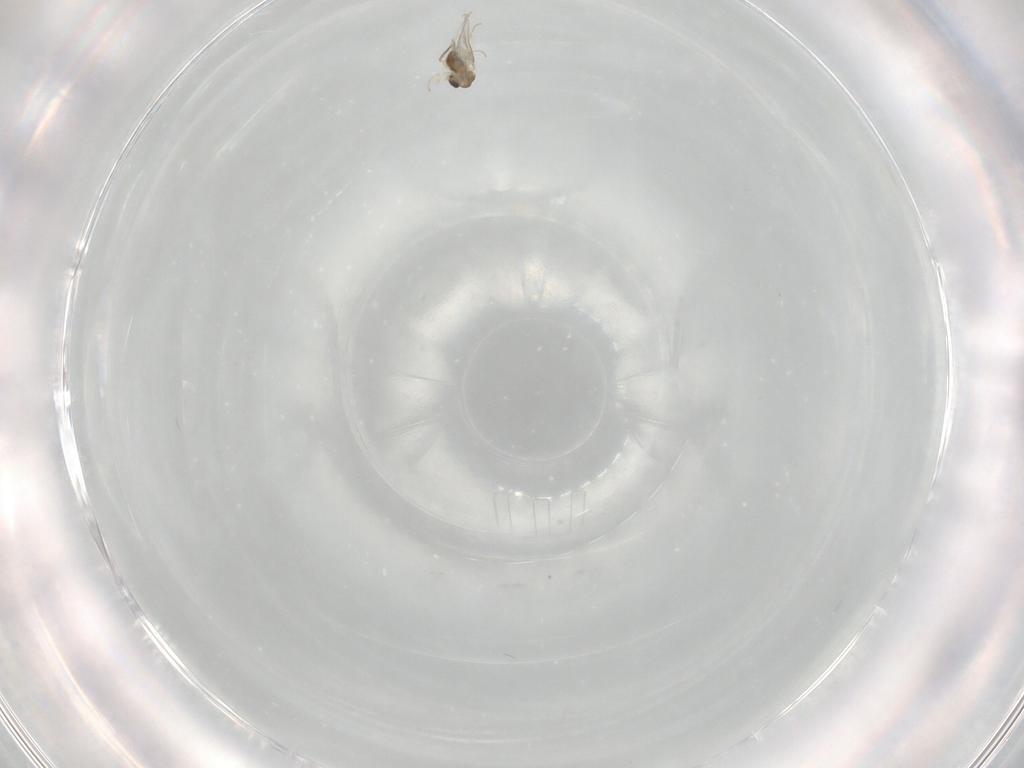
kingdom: Animalia
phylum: Arthropoda
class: Insecta
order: Diptera
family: Cecidomyiidae
